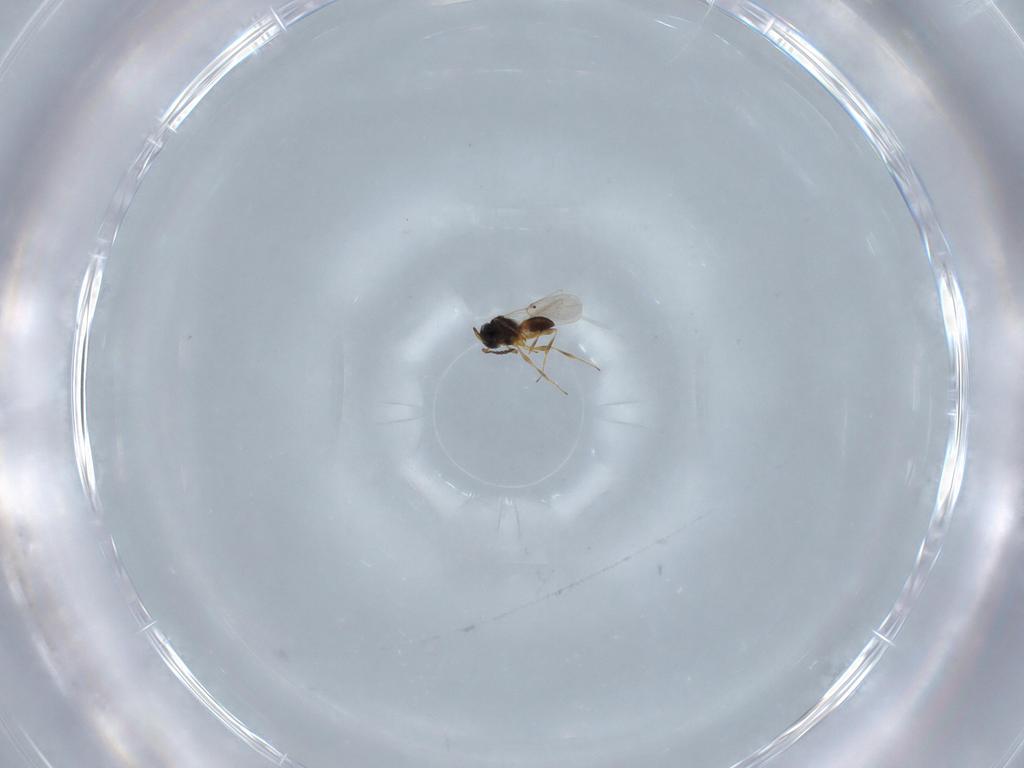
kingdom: Animalia
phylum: Arthropoda
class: Insecta
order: Hymenoptera
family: Platygastridae
